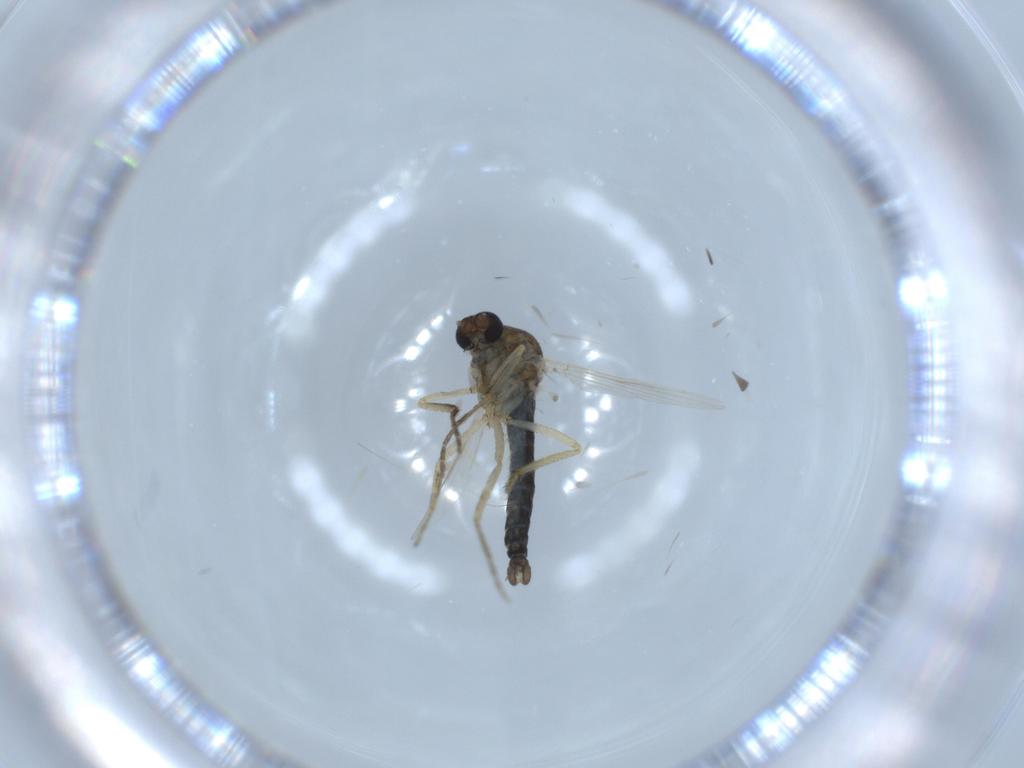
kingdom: Animalia
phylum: Arthropoda
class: Insecta
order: Diptera
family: Ceratopogonidae
